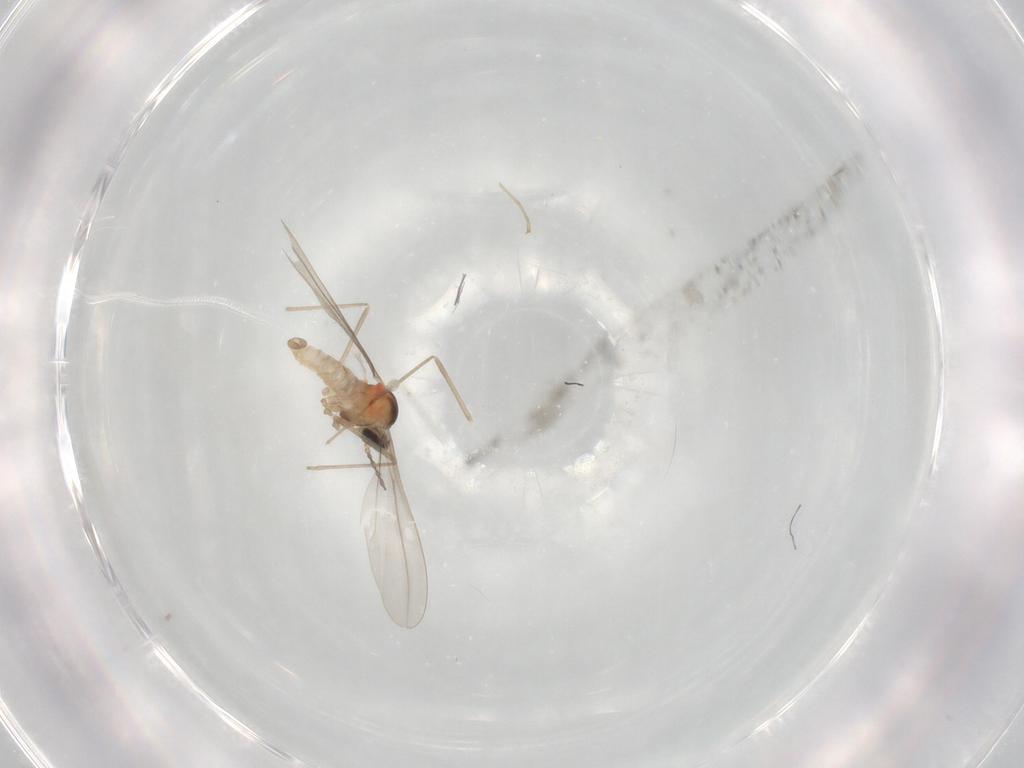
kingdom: Animalia
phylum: Arthropoda
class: Insecta
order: Diptera
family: Cecidomyiidae
